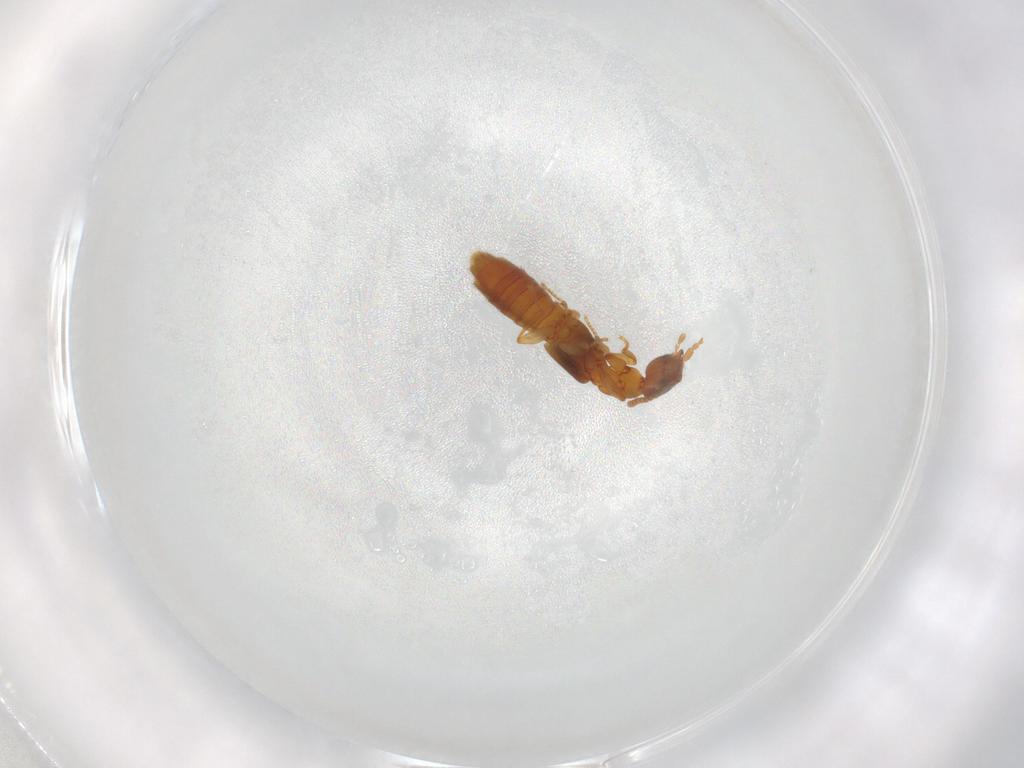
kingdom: Animalia
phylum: Arthropoda
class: Insecta
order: Coleoptera
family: Staphylinidae
